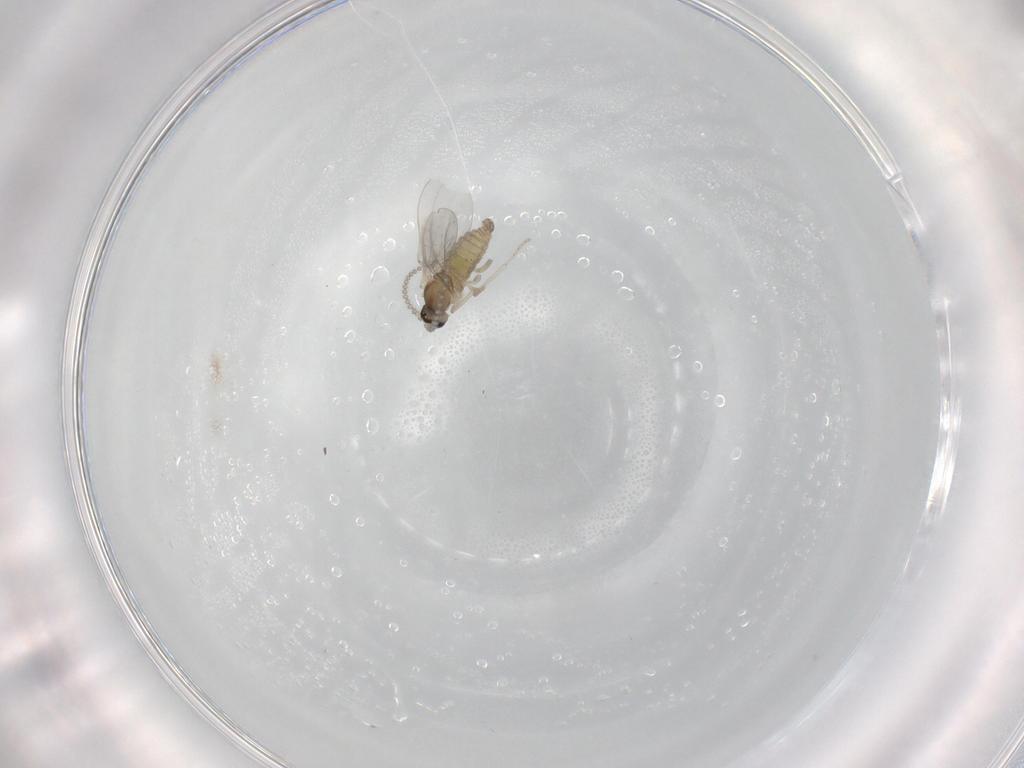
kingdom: Animalia
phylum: Arthropoda
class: Insecta
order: Diptera
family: Cecidomyiidae
